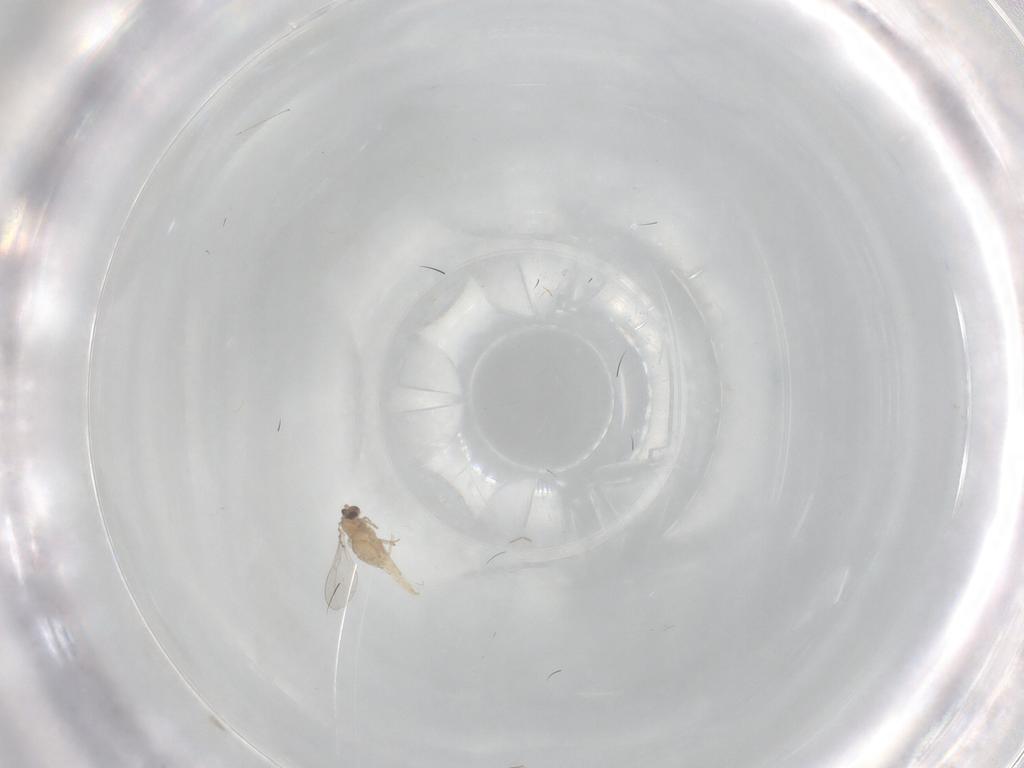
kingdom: Animalia
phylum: Arthropoda
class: Insecta
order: Diptera
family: Cecidomyiidae
